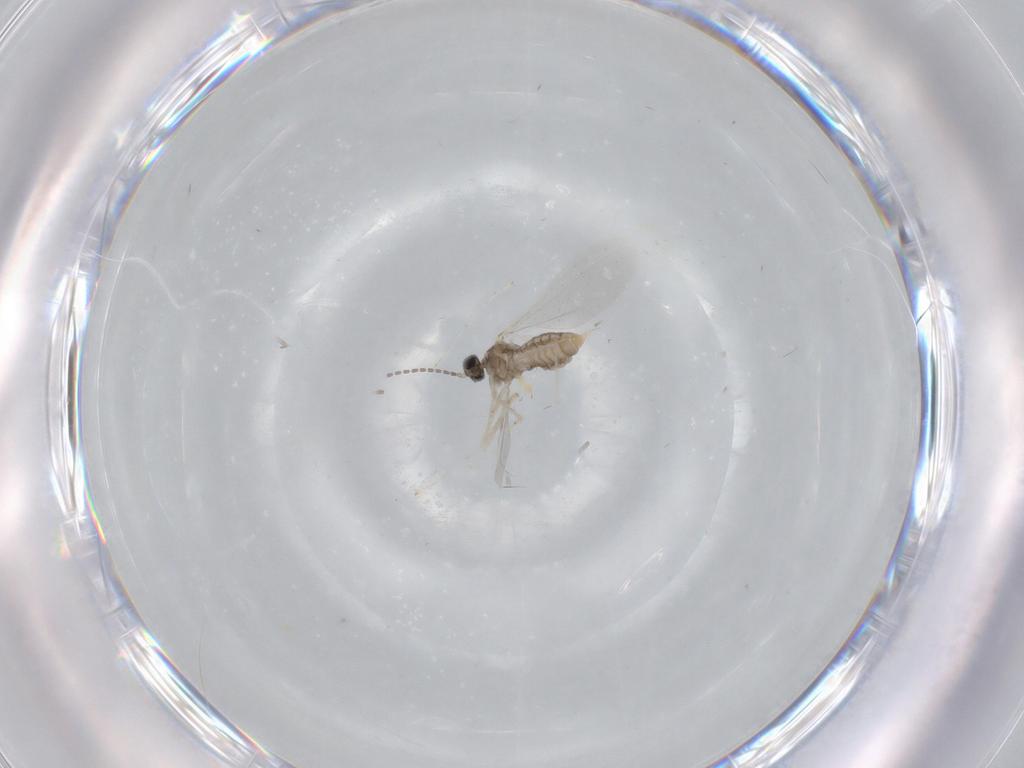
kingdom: Animalia
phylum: Arthropoda
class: Insecta
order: Diptera
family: Cecidomyiidae
